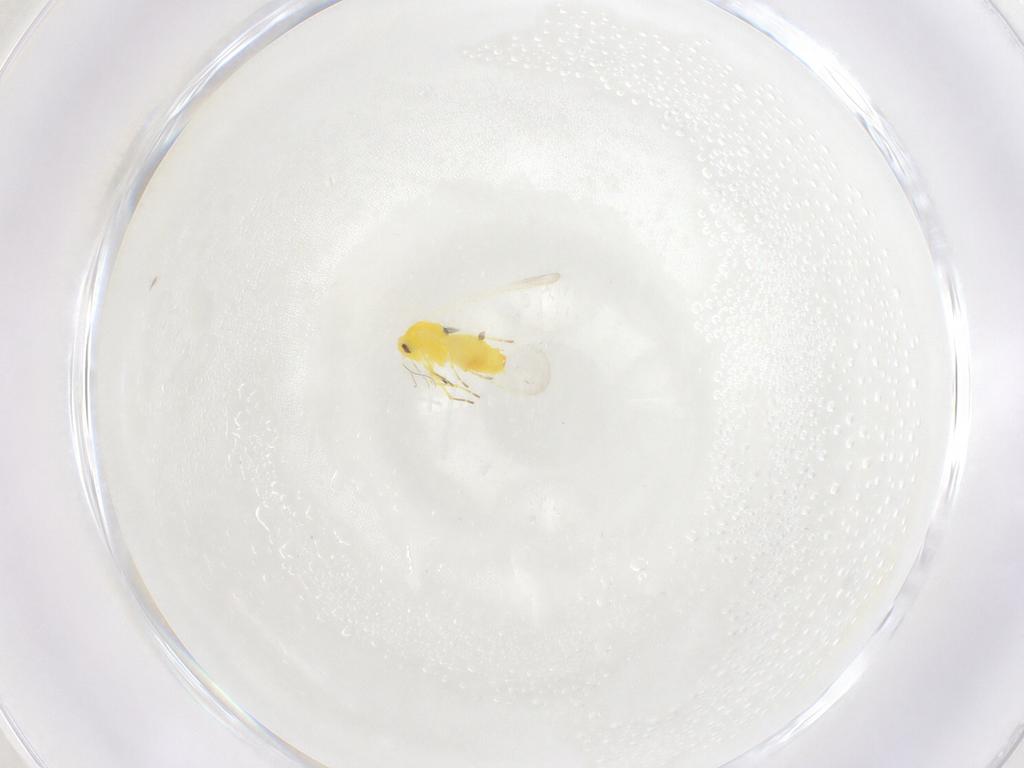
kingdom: Animalia
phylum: Arthropoda
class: Insecta
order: Hemiptera
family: Aleyrodidae
